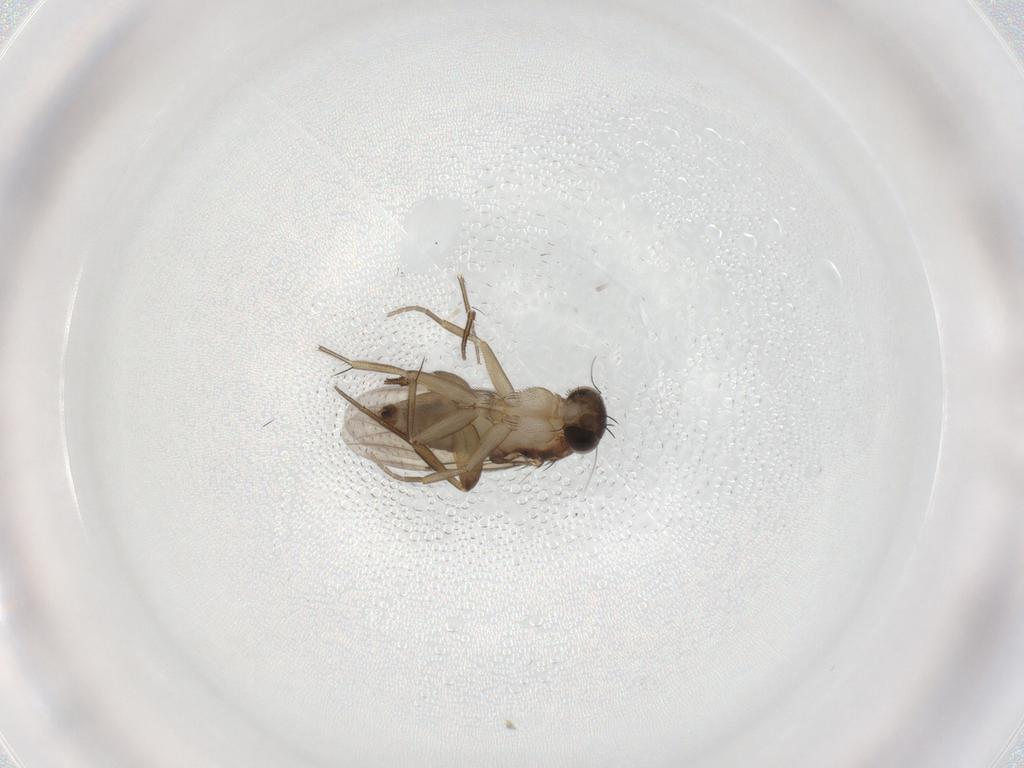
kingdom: Animalia
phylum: Arthropoda
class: Insecta
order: Diptera
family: Phoridae
